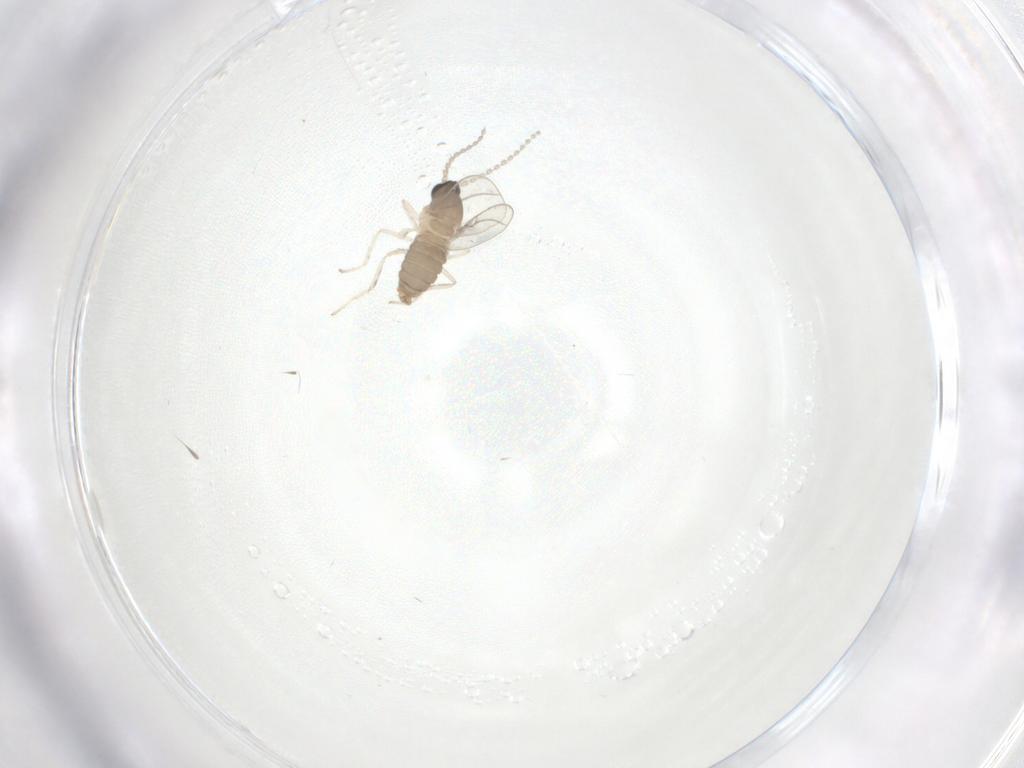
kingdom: Animalia
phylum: Arthropoda
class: Insecta
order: Diptera
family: Cecidomyiidae
